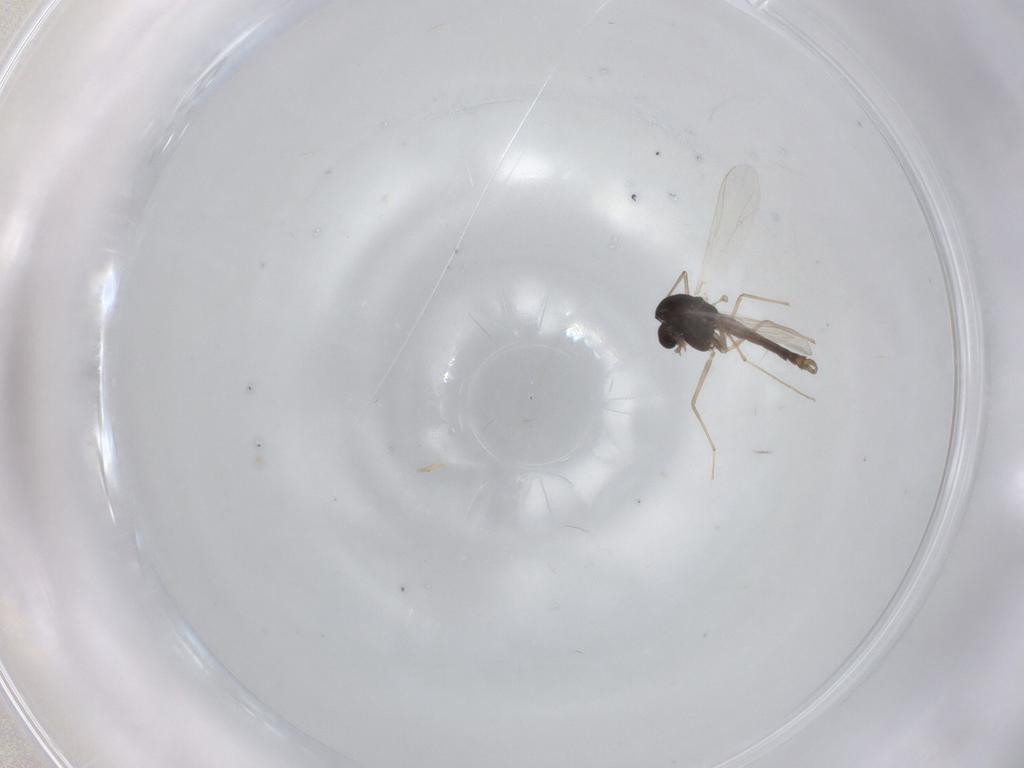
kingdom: Animalia
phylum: Arthropoda
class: Insecta
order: Diptera
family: Chironomidae
